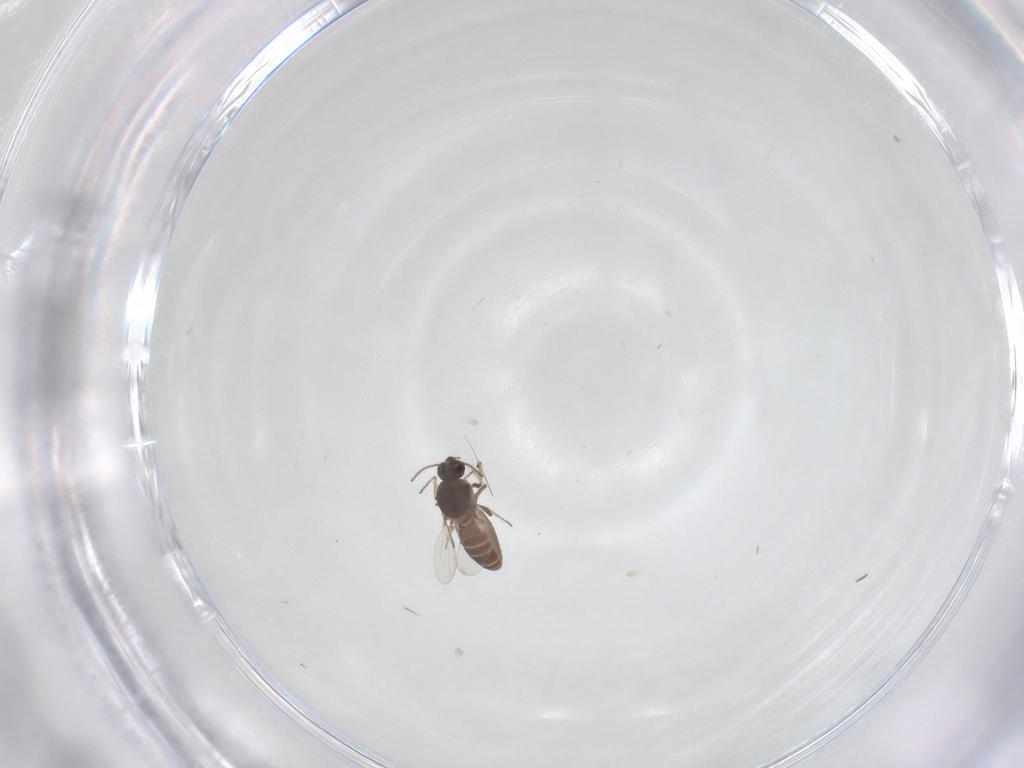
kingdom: Animalia
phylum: Arthropoda
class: Insecta
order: Diptera
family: Ceratopogonidae
